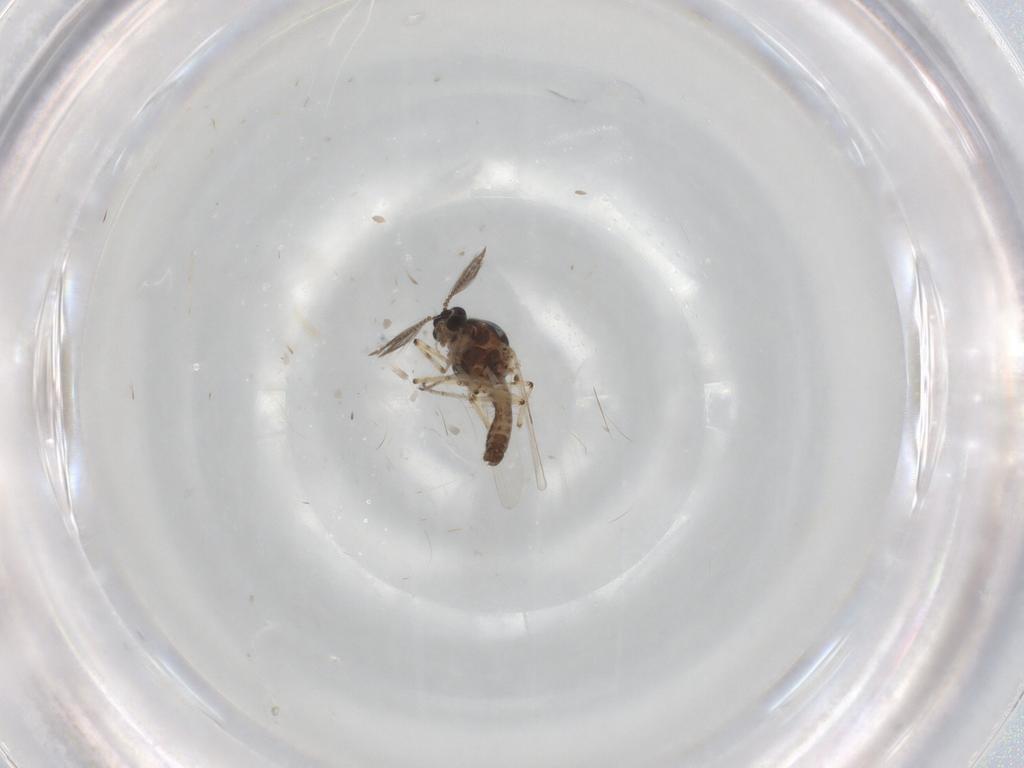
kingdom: Animalia
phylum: Arthropoda
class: Insecta
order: Diptera
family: Ceratopogonidae
